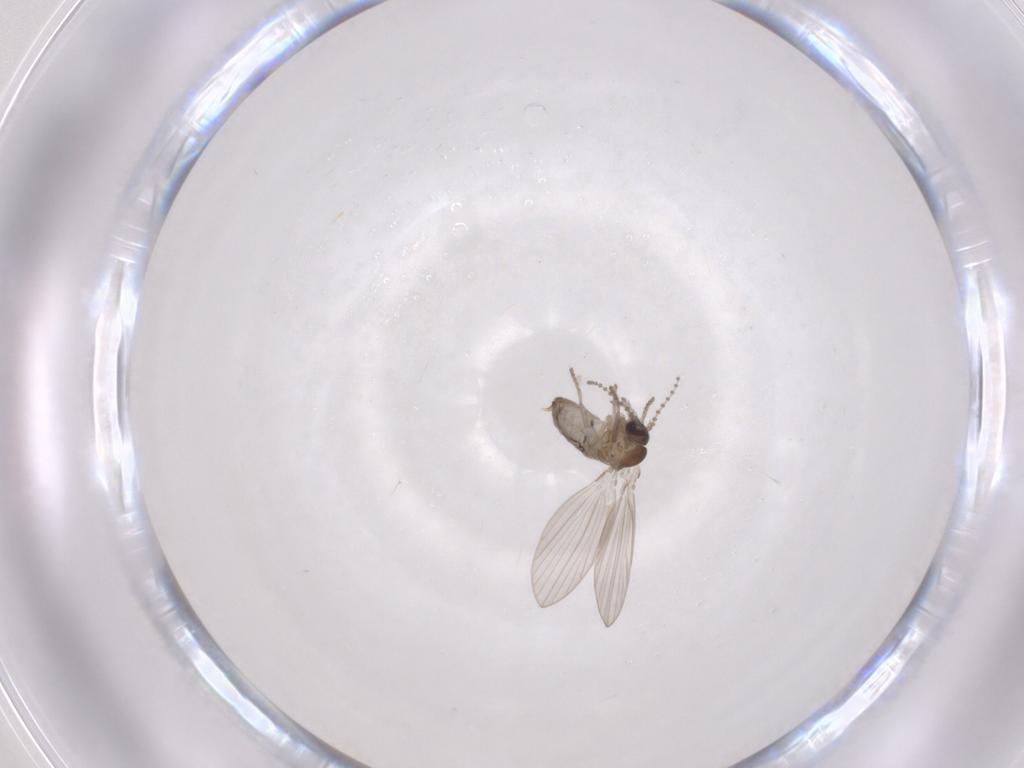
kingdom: Animalia
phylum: Arthropoda
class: Insecta
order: Diptera
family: Psychodidae
